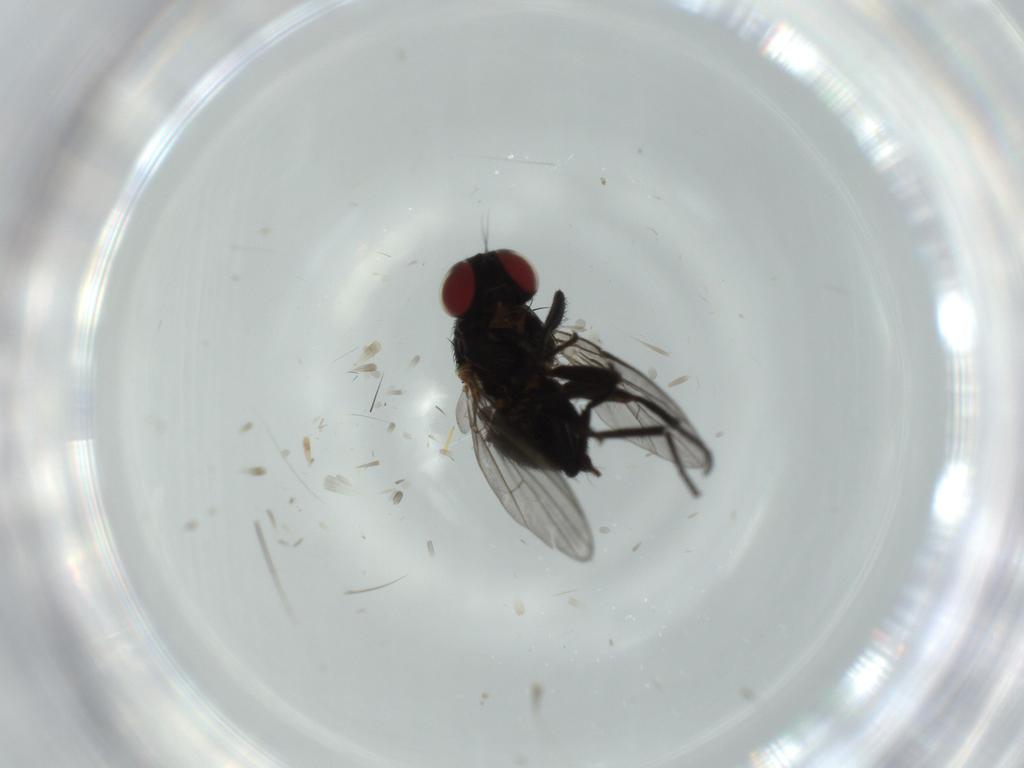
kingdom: Animalia
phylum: Arthropoda
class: Insecta
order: Diptera
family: Agromyzidae
